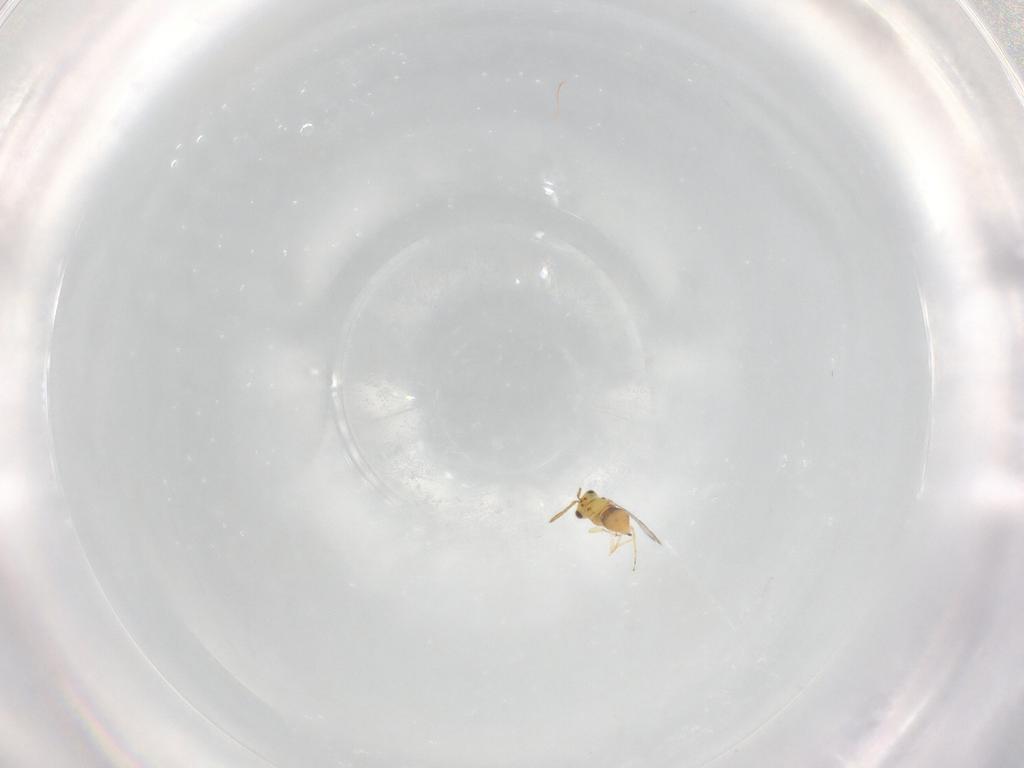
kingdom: Animalia
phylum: Arthropoda
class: Insecta
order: Hymenoptera
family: Aphelinidae
